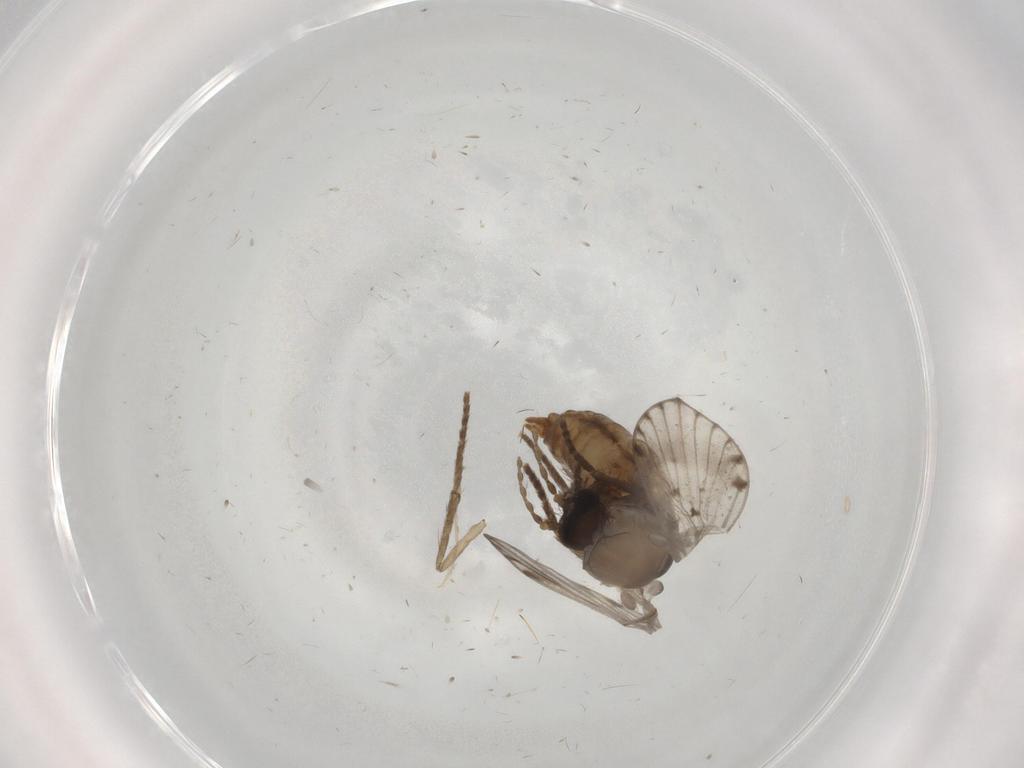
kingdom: Animalia
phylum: Arthropoda
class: Insecta
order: Diptera
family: Psychodidae
